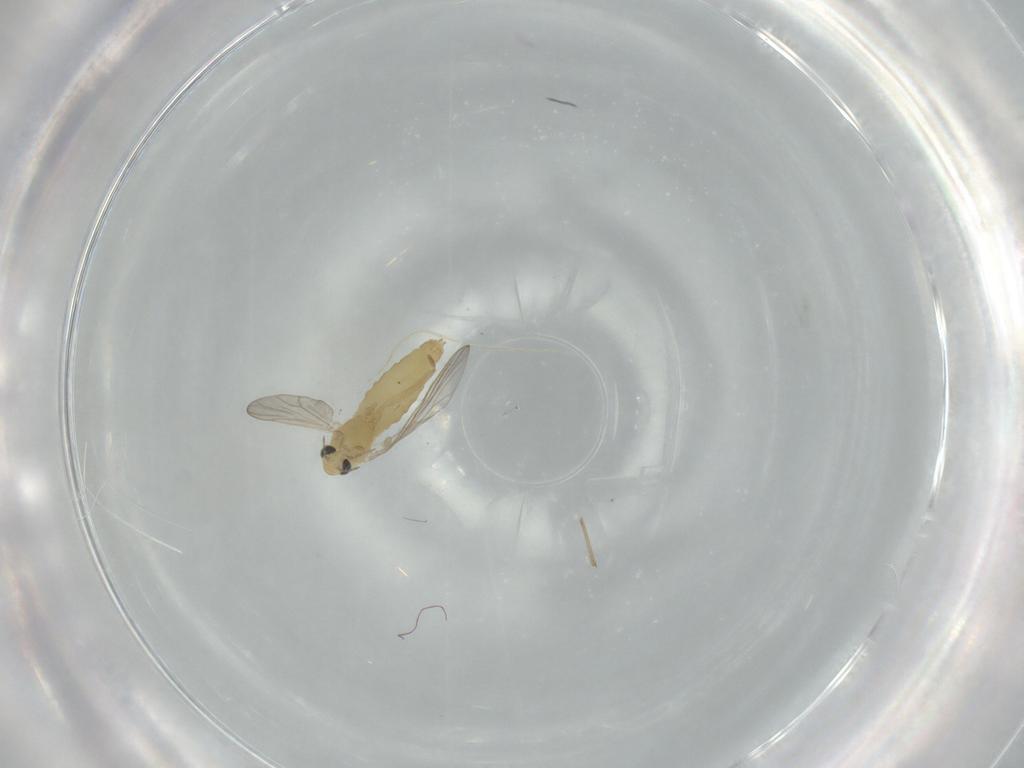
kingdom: Animalia
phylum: Arthropoda
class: Insecta
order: Diptera
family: Chironomidae
